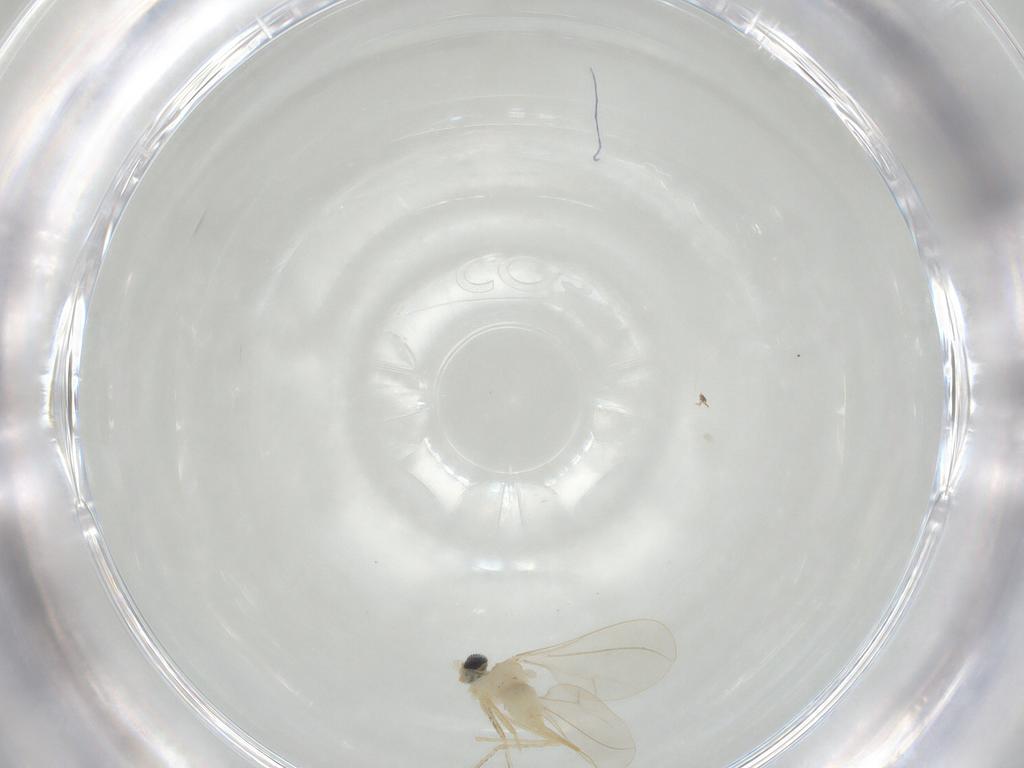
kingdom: Animalia
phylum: Arthropoda
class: Insecta
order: Diptera
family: Cecidomyiidae
